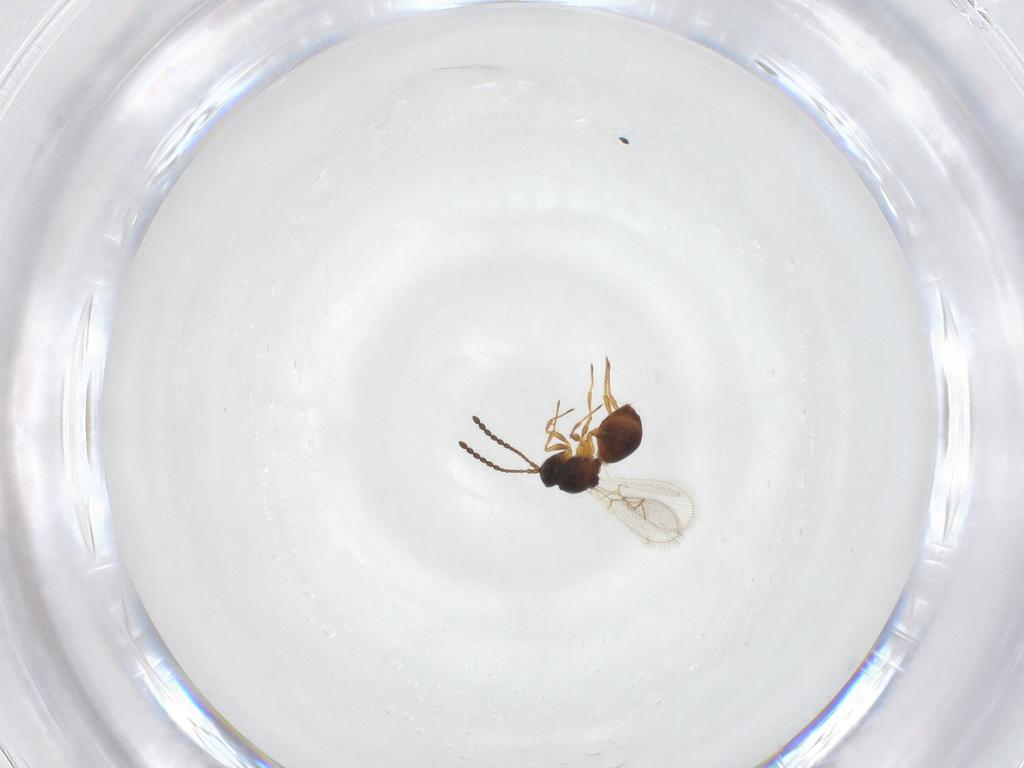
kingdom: Animalia
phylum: Arthropoda
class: Insecta
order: Hymenoptera
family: Figitidae
